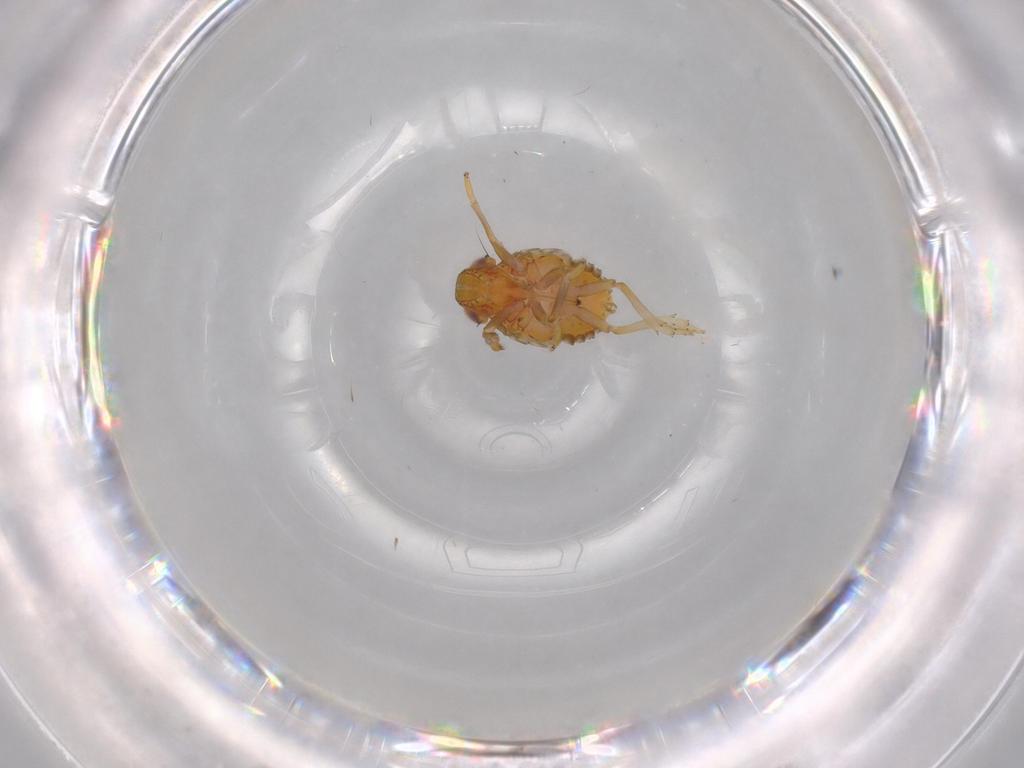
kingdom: Animalia
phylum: Arthropoda
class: Insecta
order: Hemiptera
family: Issidae
